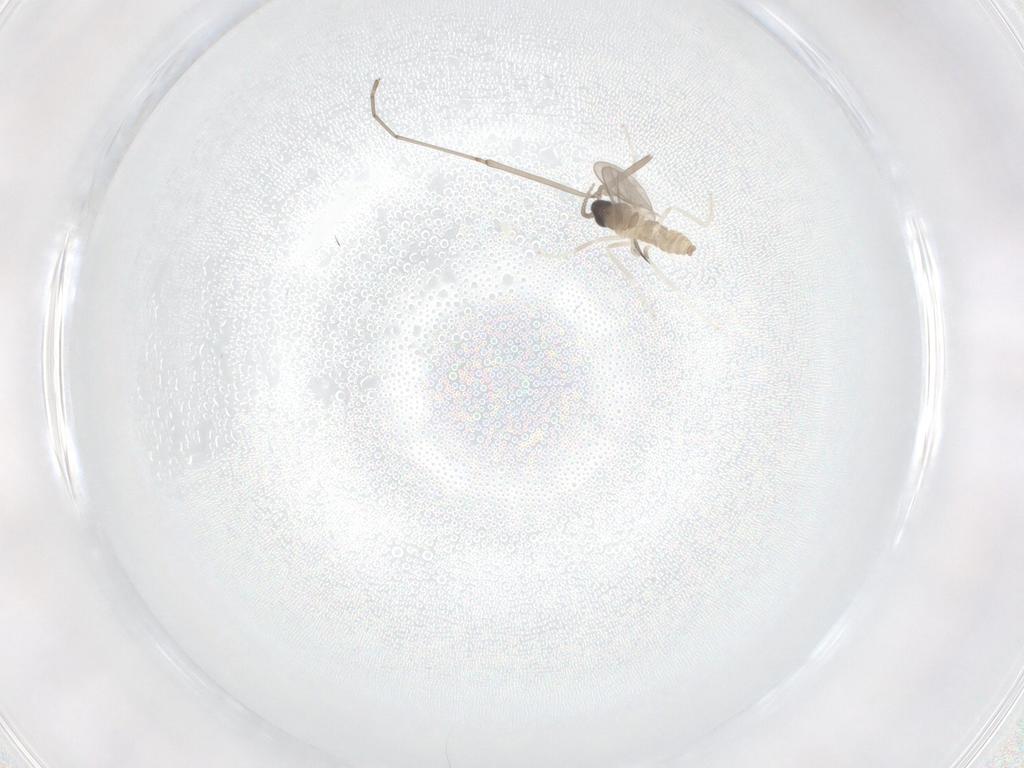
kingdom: Animalia
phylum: Arthropoda
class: Insecta
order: Diptera
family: Cecidomyiidae
